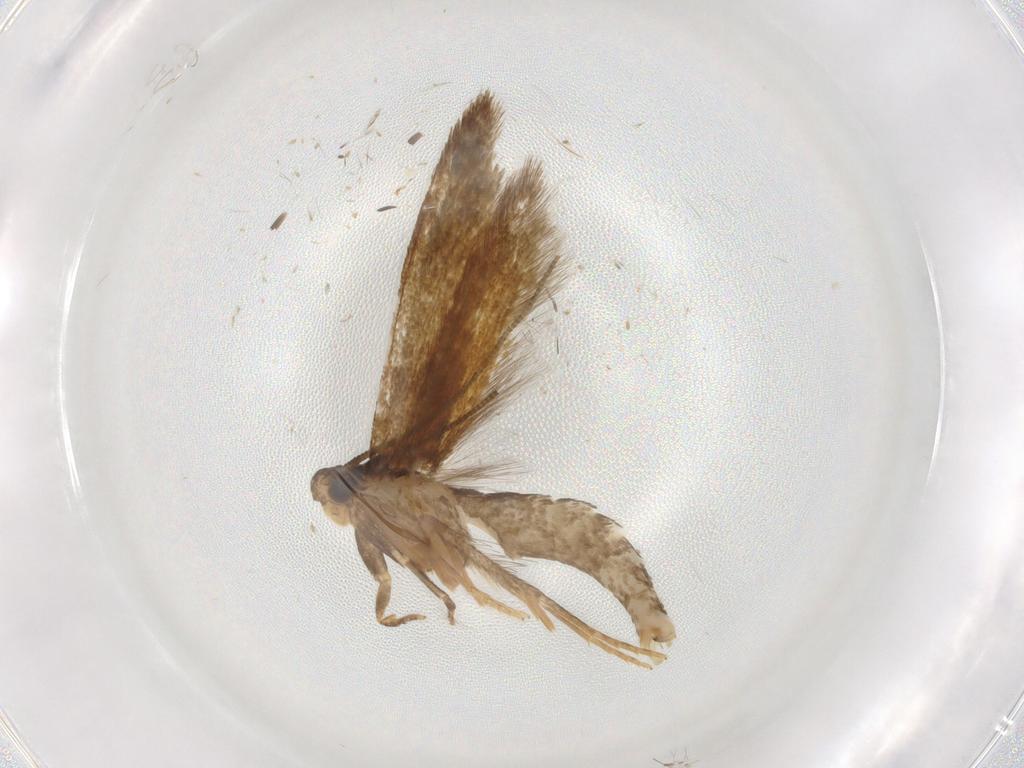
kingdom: Animalia
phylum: Arthropoda
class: Insecta
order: Lepidoptera
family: Tineidae
